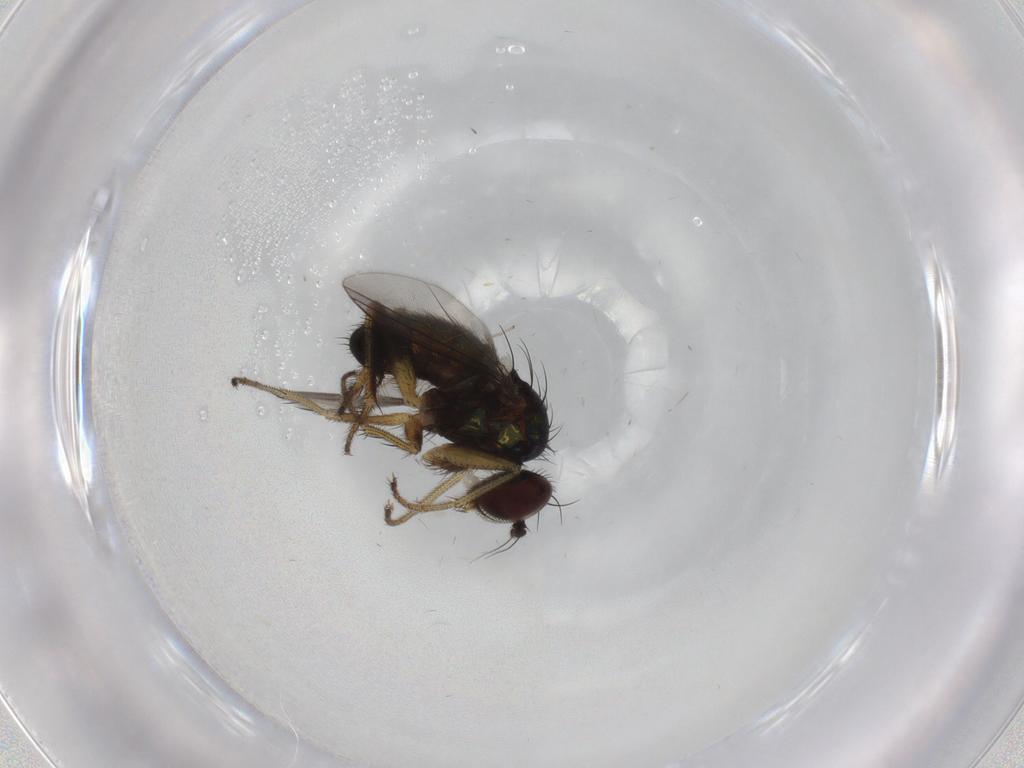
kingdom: Animalia
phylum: Arthropoda
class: Insecta
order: Diptera
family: Dolichopodidae
